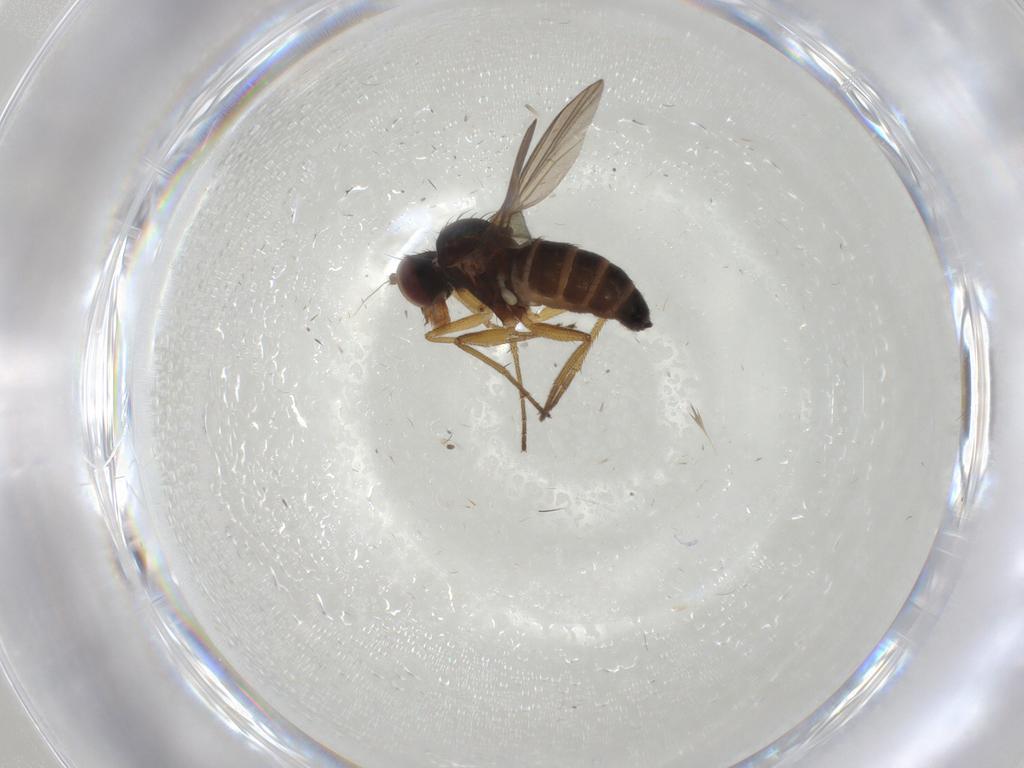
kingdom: Animalia
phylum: Arthropoda
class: Insecta
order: Diptera
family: Dolichopodidae
